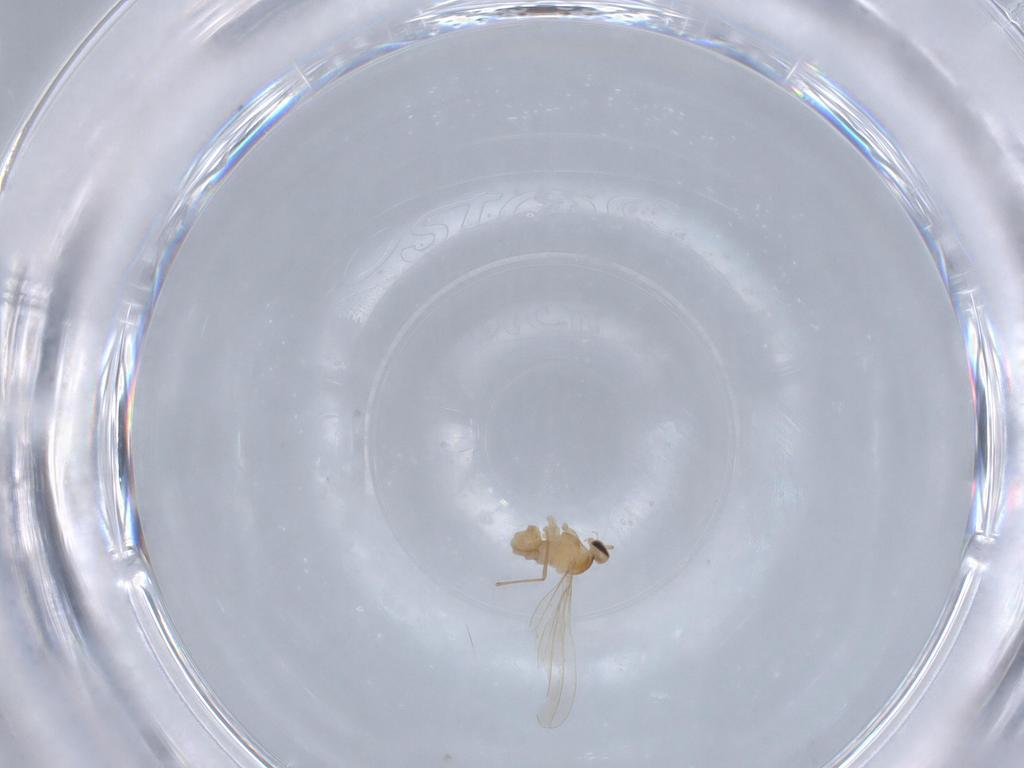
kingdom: Animalia
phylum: Arthropoda
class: Insecta
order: Diptera
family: Cecidomyiidae
